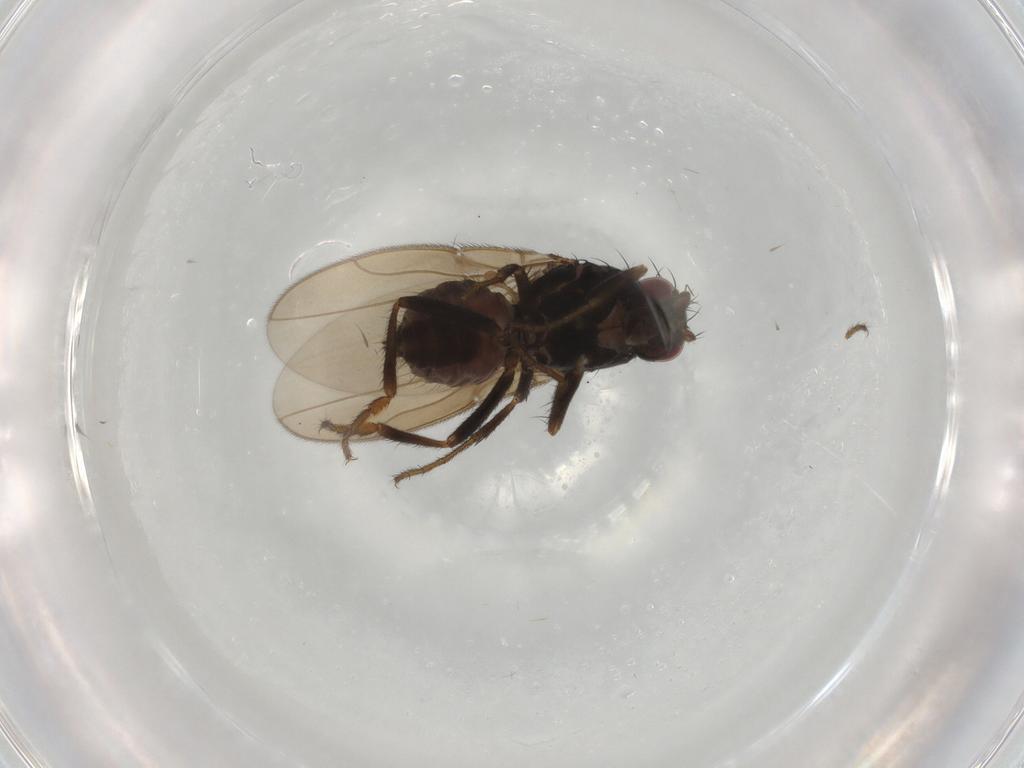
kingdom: Animalia
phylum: Arthropoda
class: Insecta
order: Diptera
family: Sphaeroceridae
